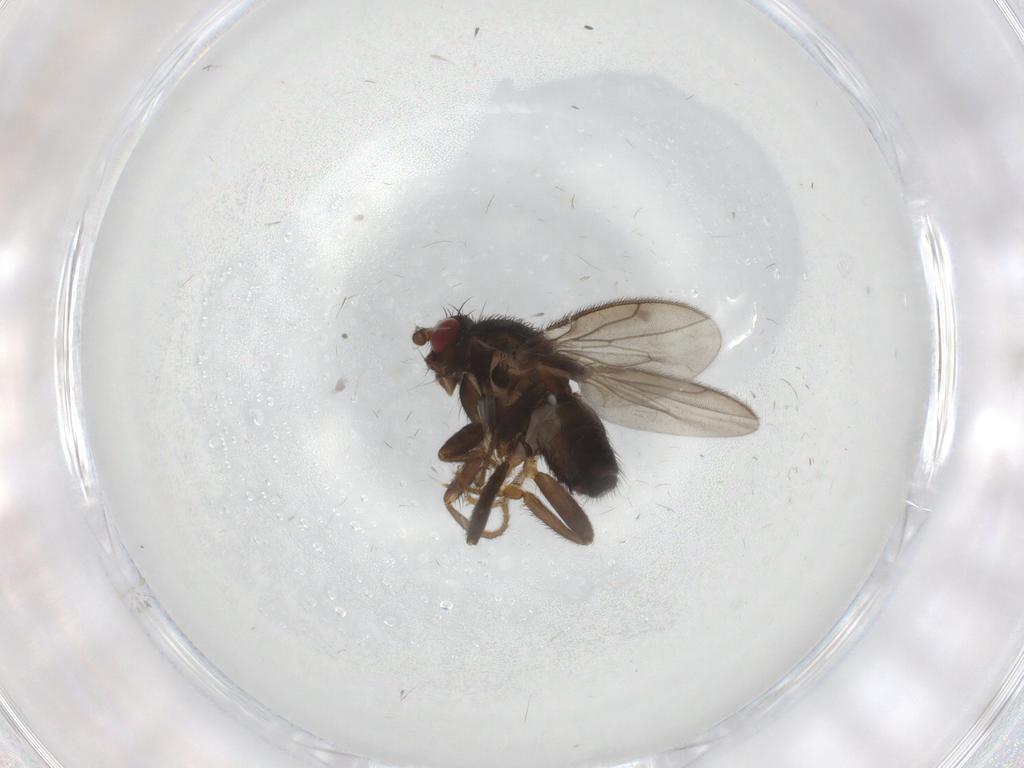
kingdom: Animalia
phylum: Arthropoda
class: Insecta
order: Diptera
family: Sphaeroceridae
